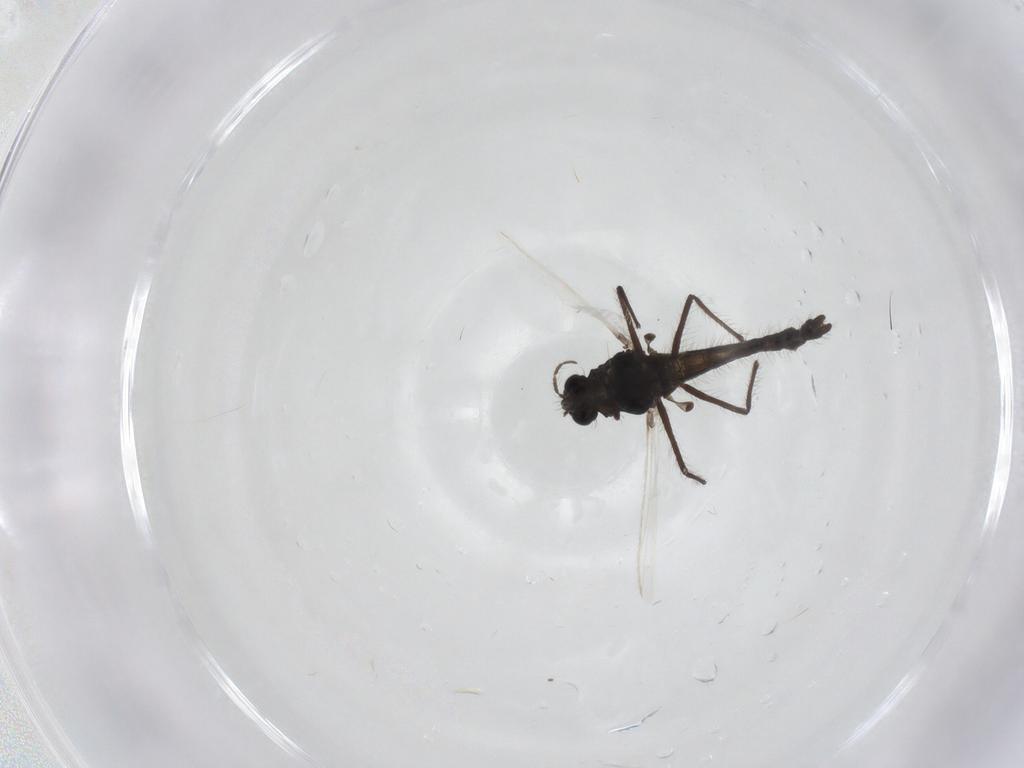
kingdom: Animalia
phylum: Arthropoda
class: Insecta
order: Diptera
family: Chironomidae
